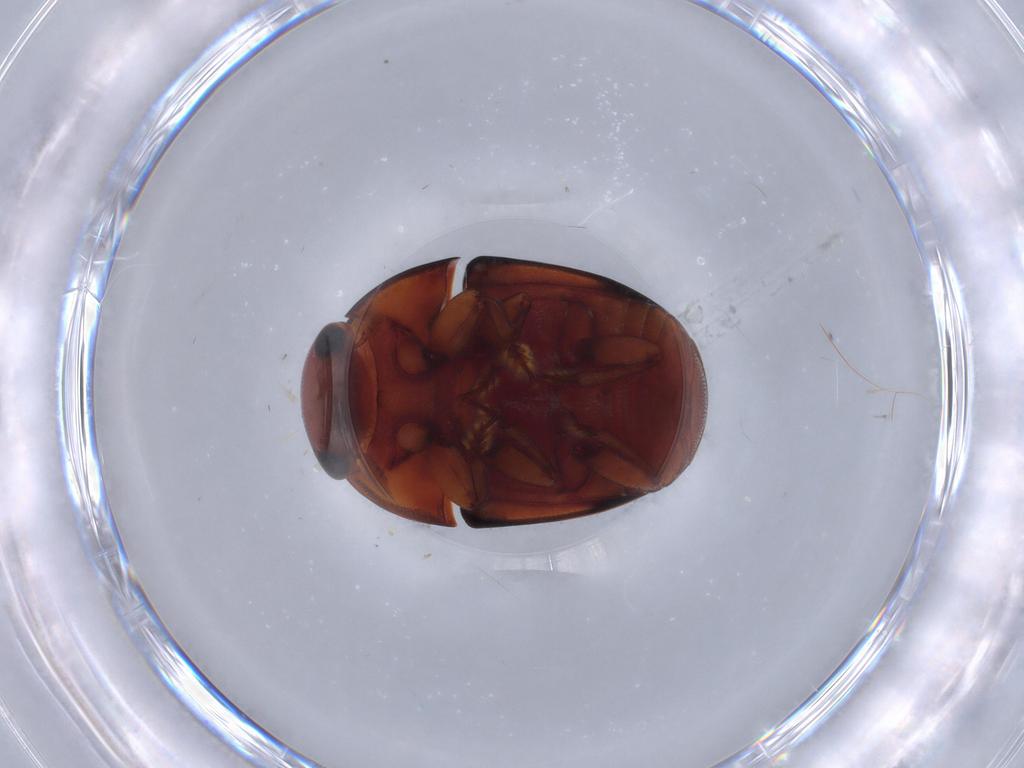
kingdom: Animalia
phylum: Arthropoda
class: Insecta
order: Coleoptera
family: Nitidulidae
